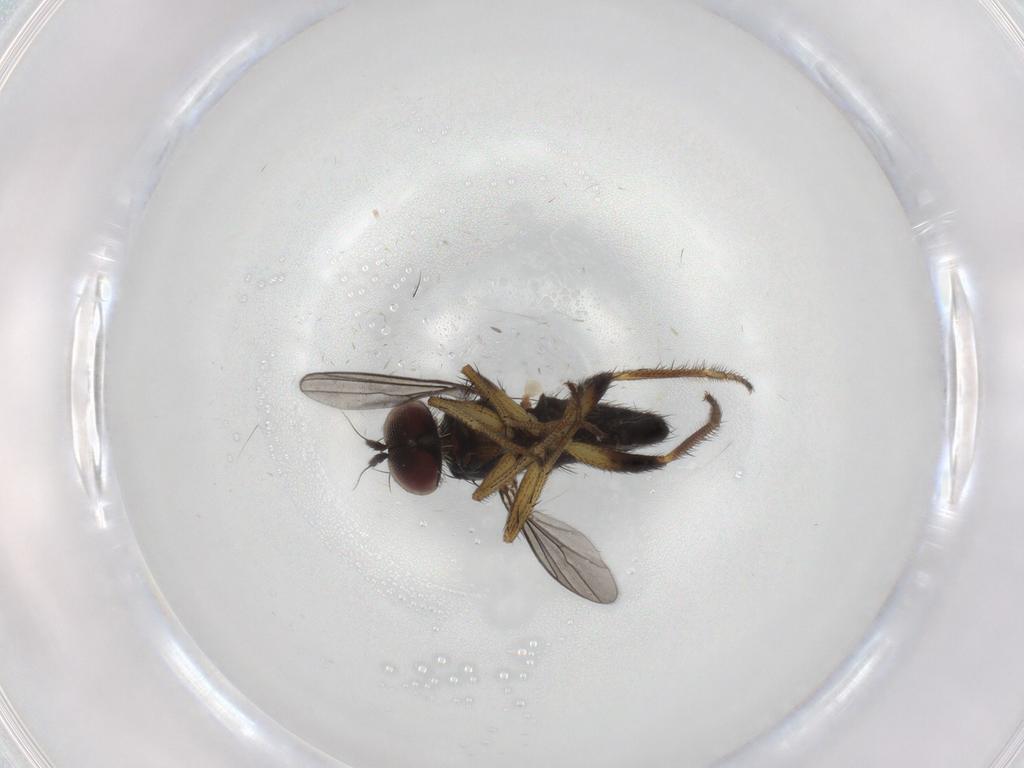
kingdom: Animalia
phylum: Arthropoda
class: Insecta
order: Diptera
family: Dolichopodidae
